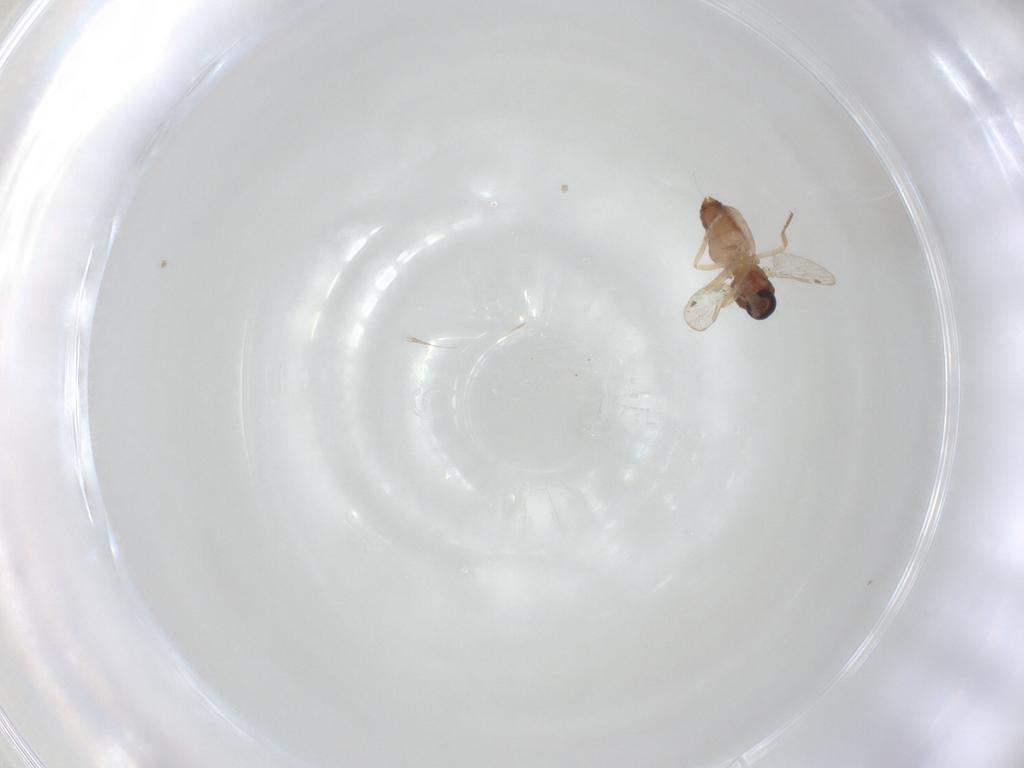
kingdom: Animalia
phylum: Arthropoda
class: Insecta
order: Diptera
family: Ceratopogonidae
